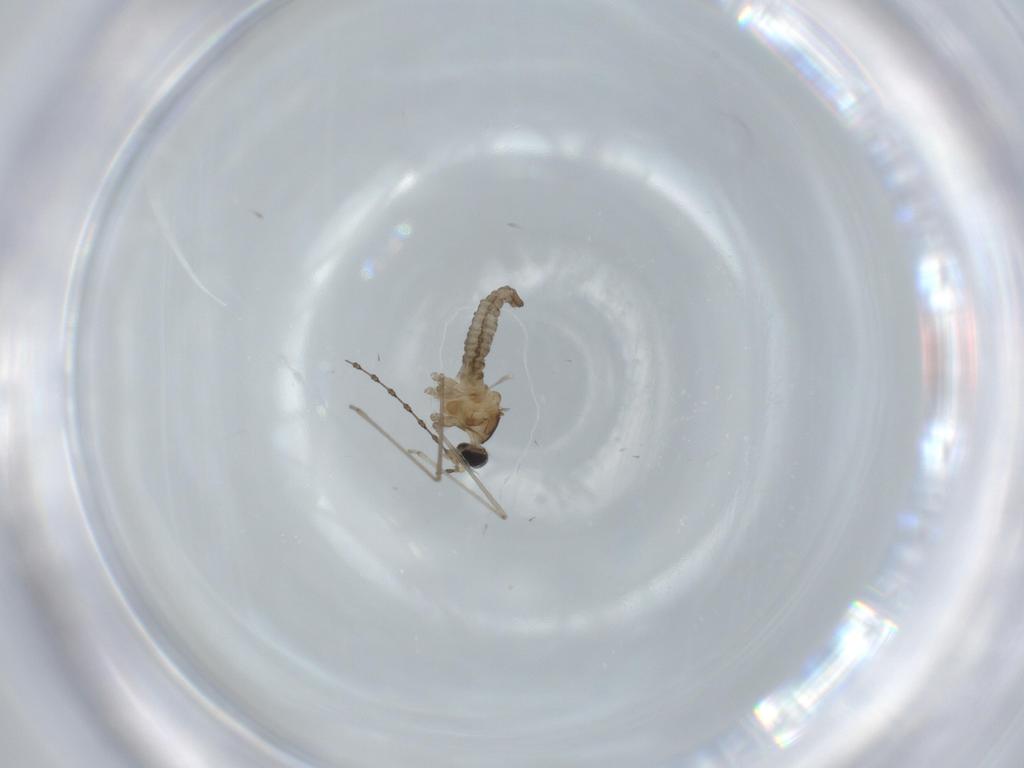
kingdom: Animalia
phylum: Arthropoda
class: Insecta
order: Diptera
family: Cecidomyiidae
